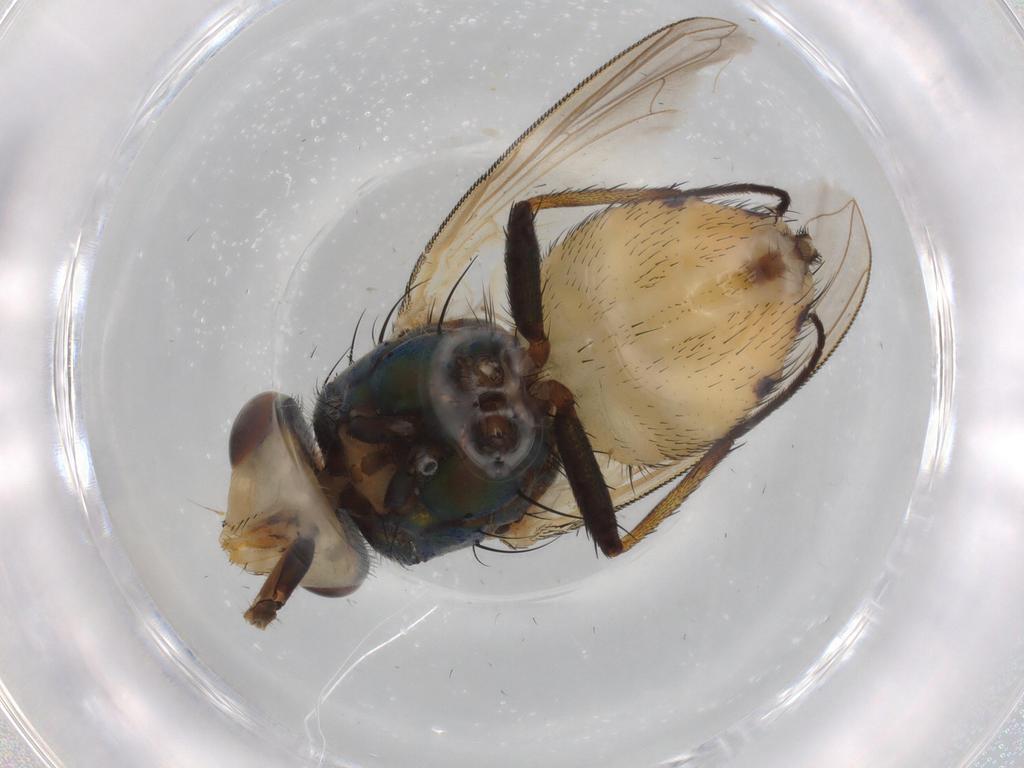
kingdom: Animalia
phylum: Arthropoda
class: Insecta
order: Diptera
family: Calliphoridae
